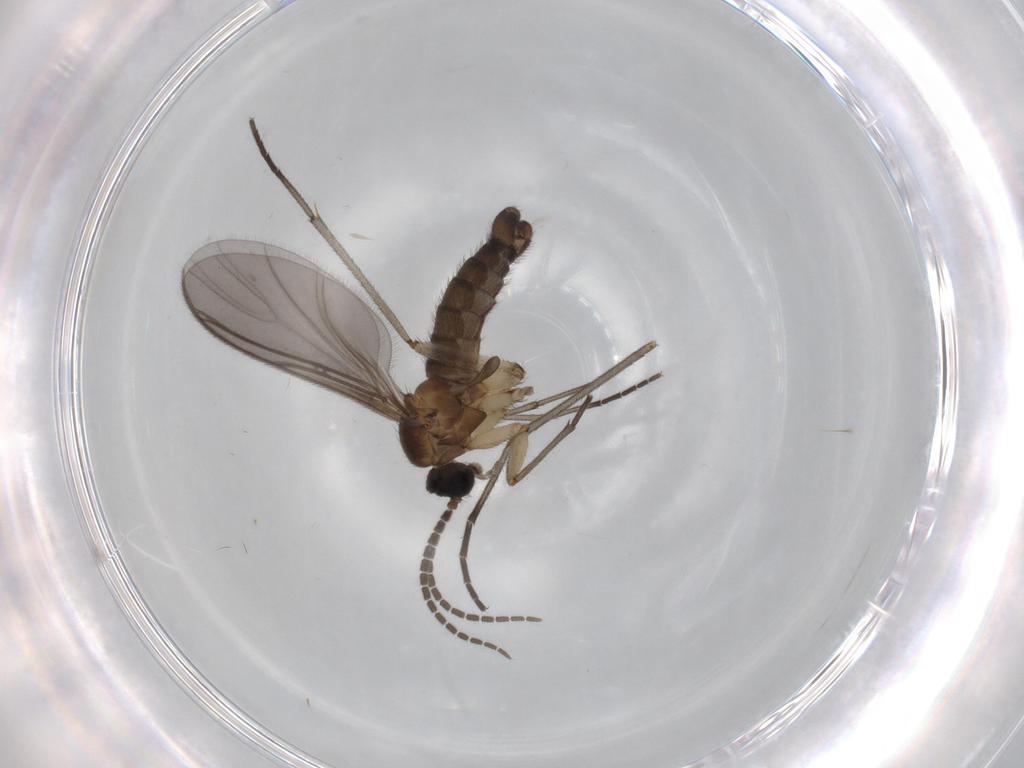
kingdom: Animalia
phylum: Arthropoda
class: Insecta
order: Diptera
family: Sciaridae
